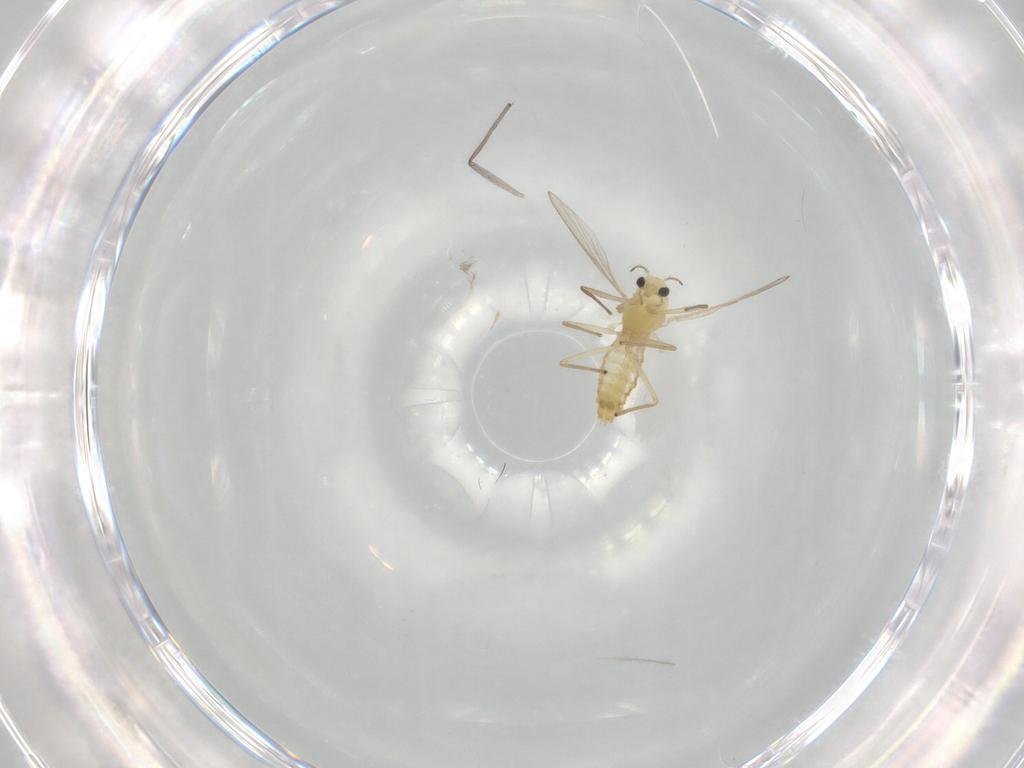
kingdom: Animalia
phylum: Arthropoda
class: Insecta
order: Diptera
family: Chironomidae
